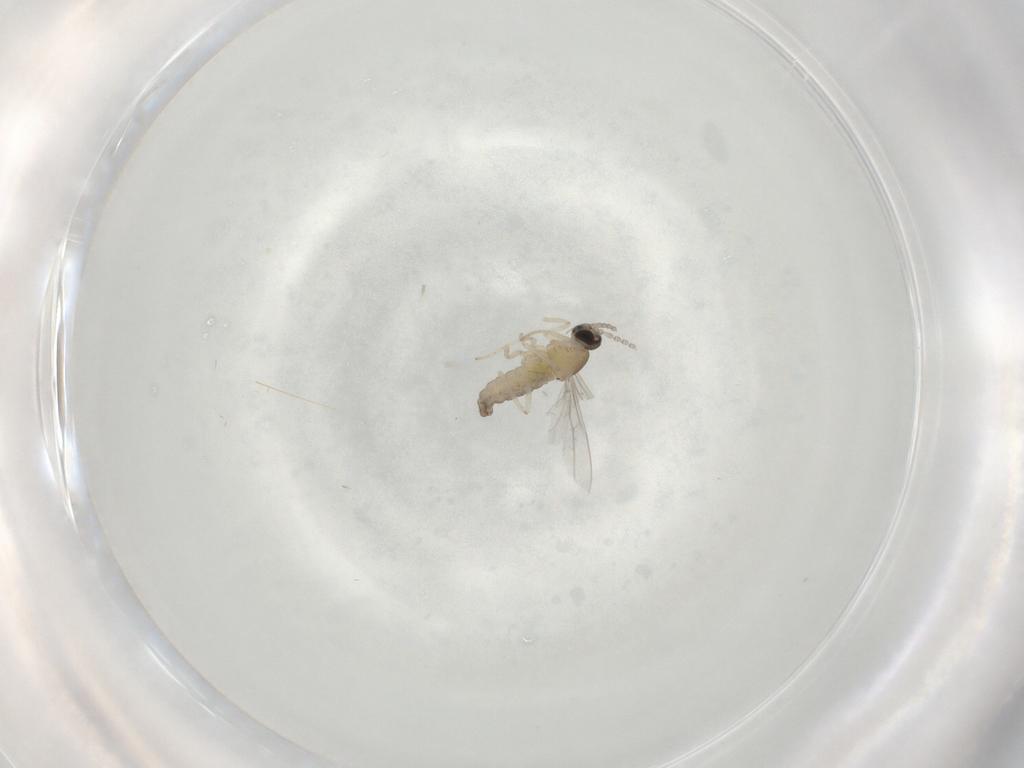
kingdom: Animalia
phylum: Arthropoda
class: Insecta
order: Diptera
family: Cecidomyiidae
